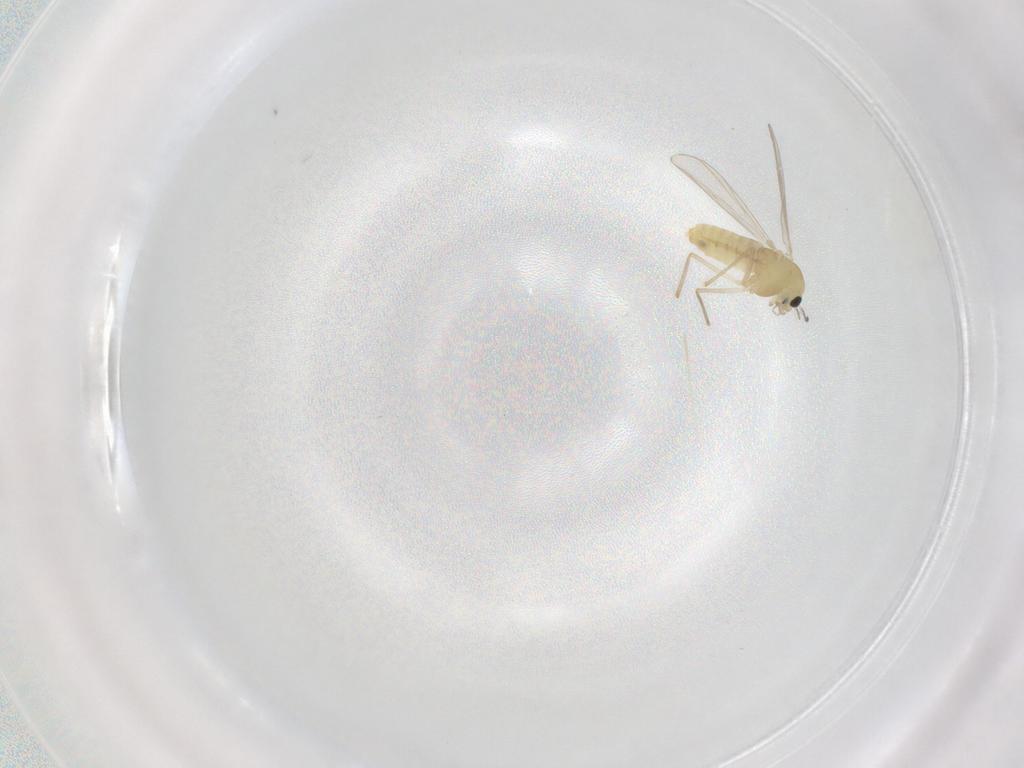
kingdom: Animalia
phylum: Arthropoda
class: Insecta
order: Diptera
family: Chironomidae
